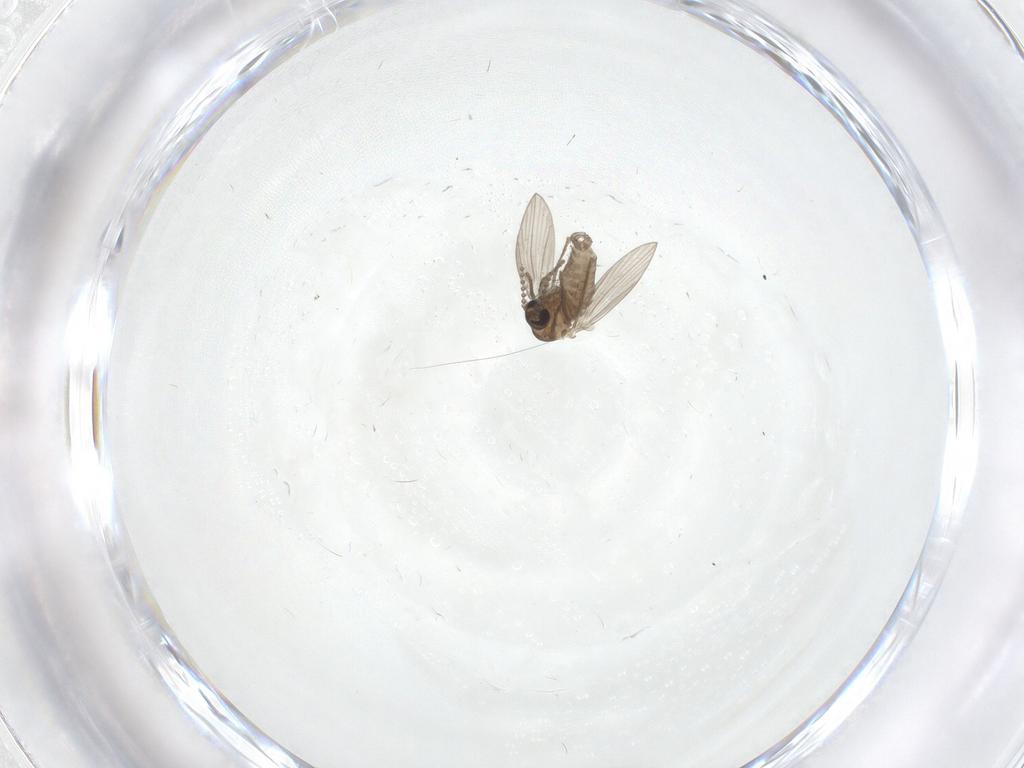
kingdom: Animalia
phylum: Arthropoda
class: Insecta
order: Diptera
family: Psychodidae
